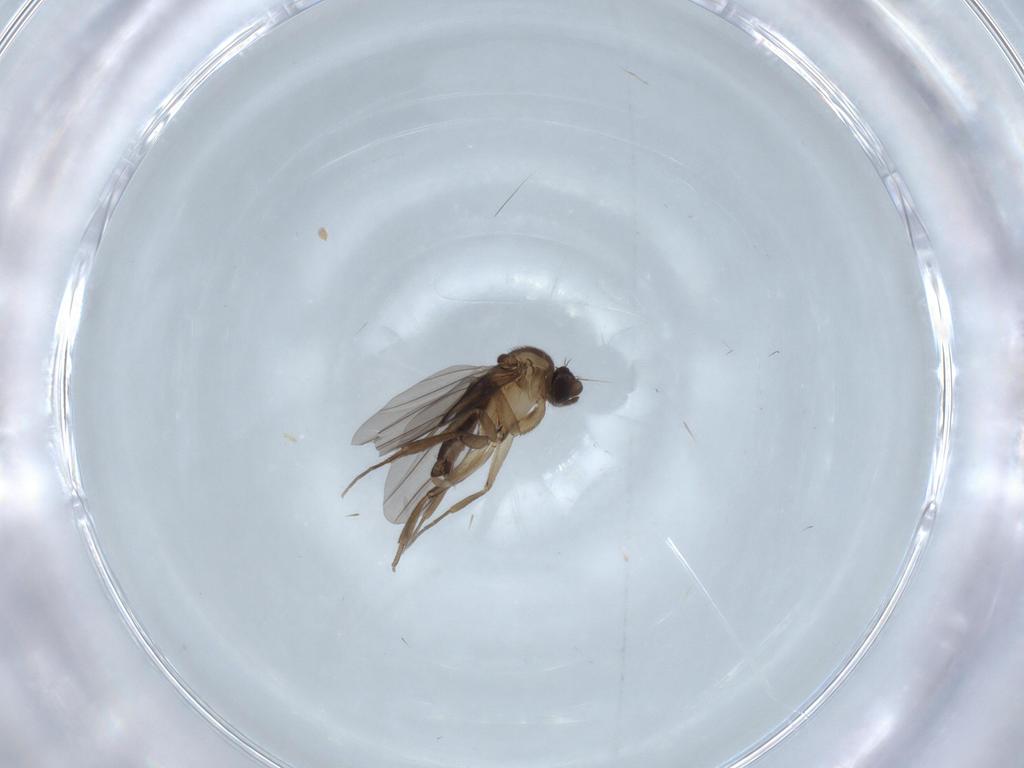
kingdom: Animalia
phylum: Arthropoda
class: Insecta
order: Diptera
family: Phoridae
